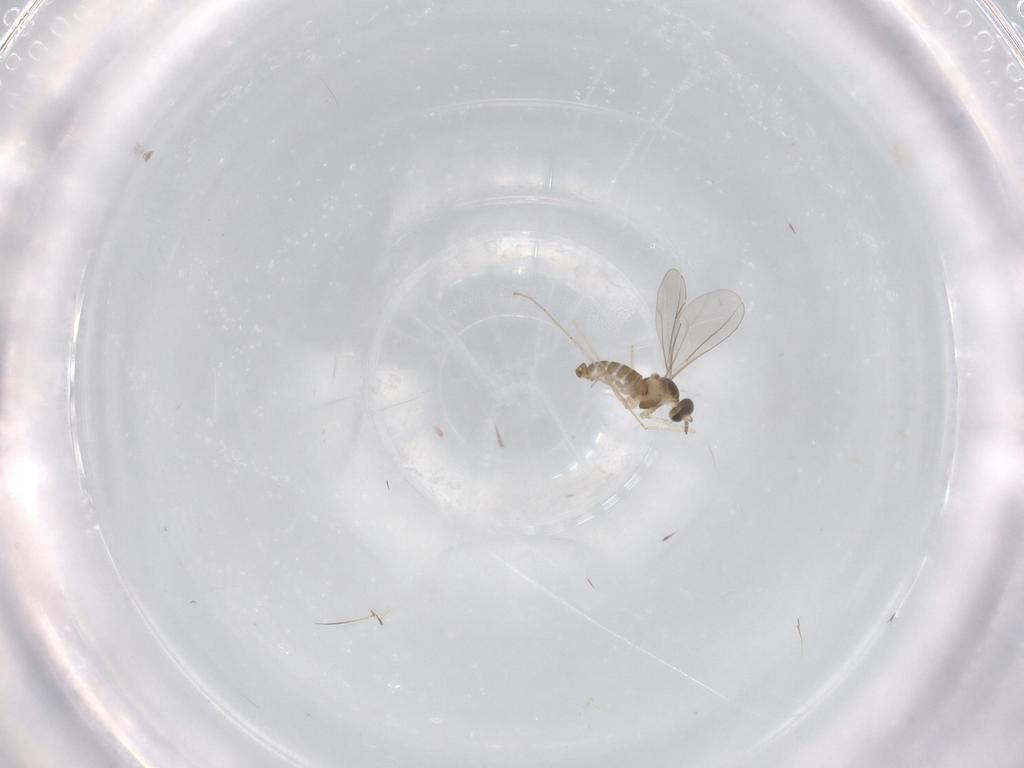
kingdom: Animalia
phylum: Arthropoda
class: Insecta
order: Diptera
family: Cecidomyiidae
